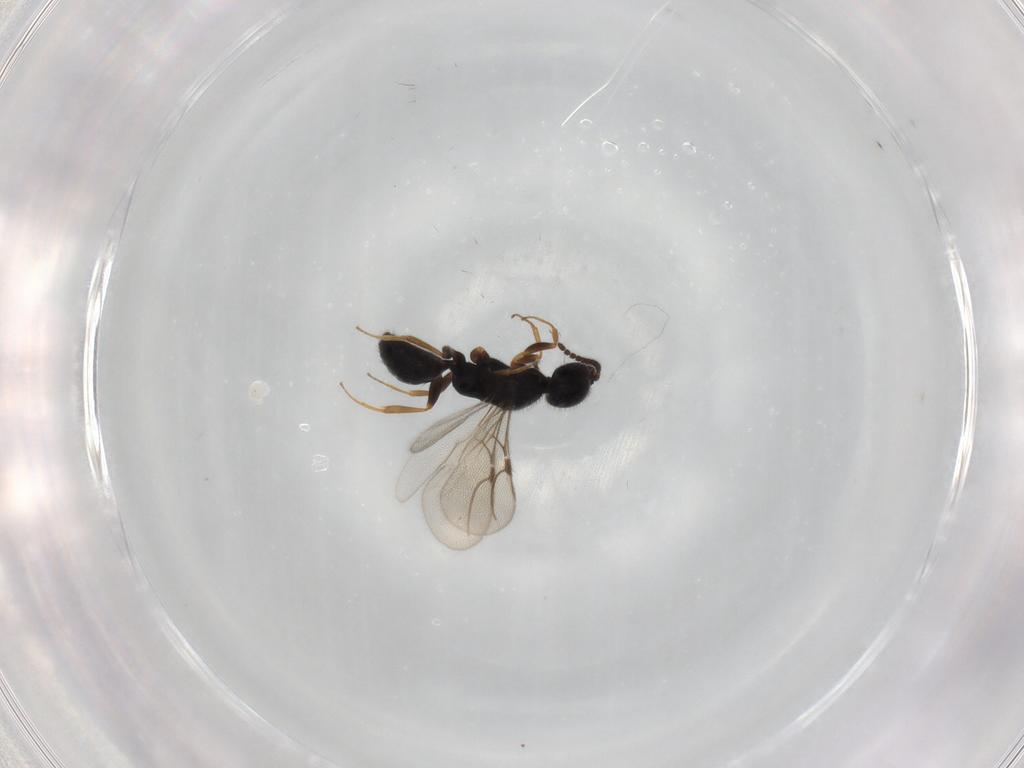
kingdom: Animalia
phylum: Arthropoda
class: Insecta
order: Hymenoptera
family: Bethylidae
